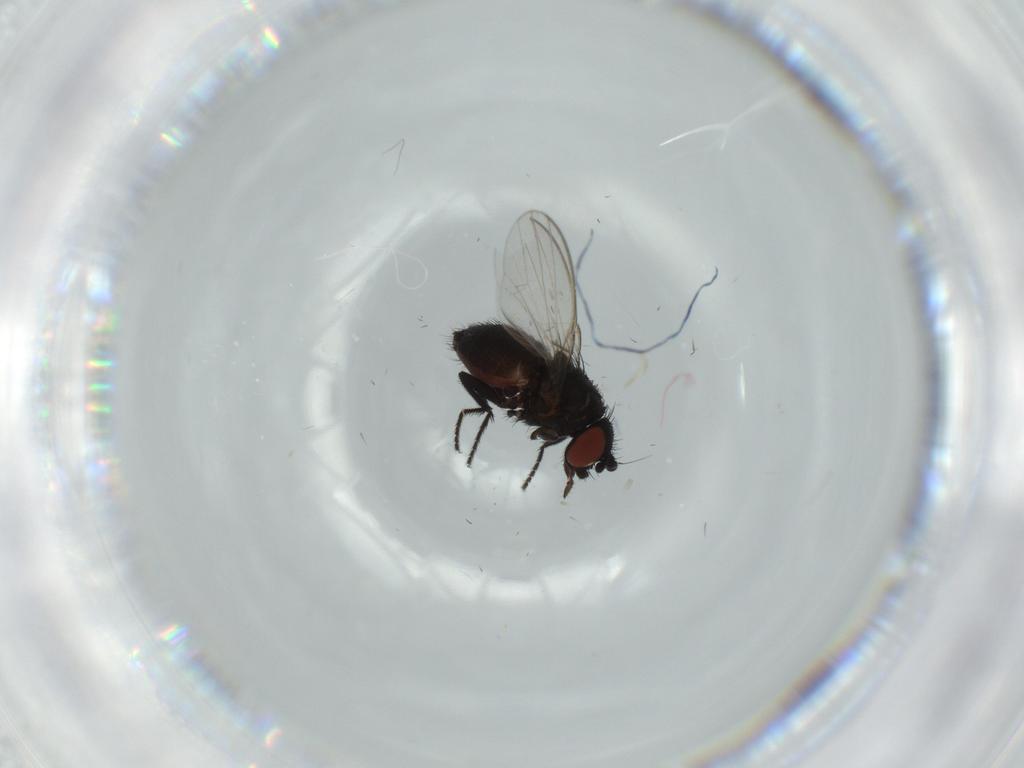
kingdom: Animalia
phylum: Arthropoda
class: Insecta
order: Diptera
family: Milichiidae
